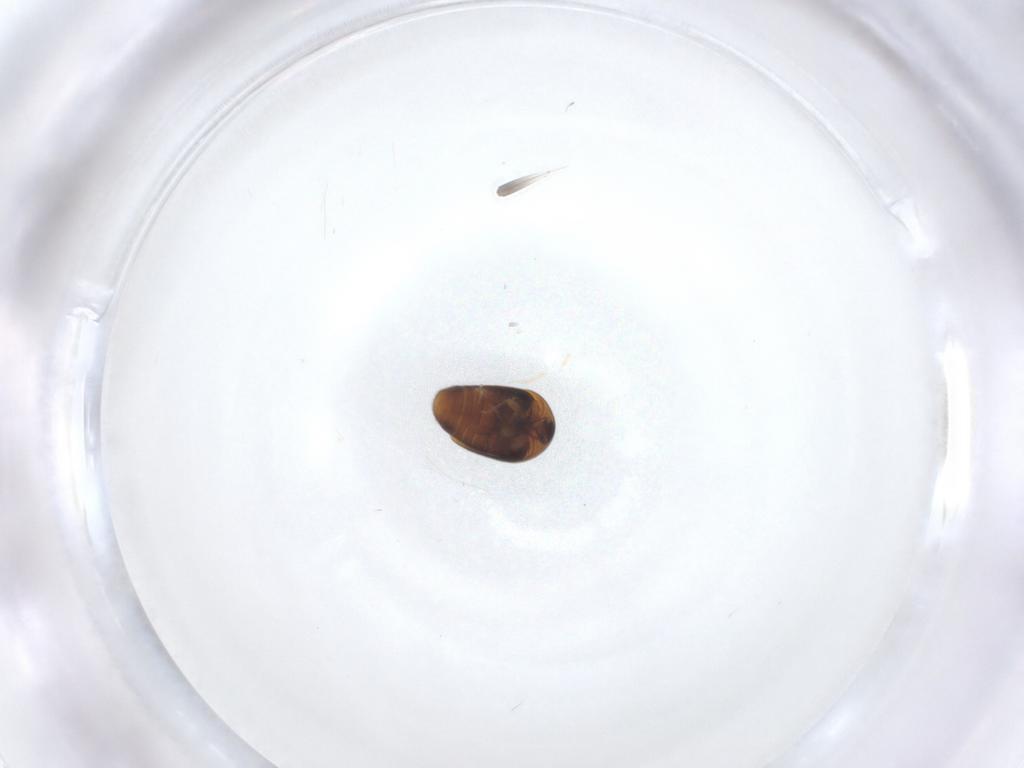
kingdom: Animalia
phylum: Arthropoda
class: Insecta
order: Coleoptera
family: Corylophidae
